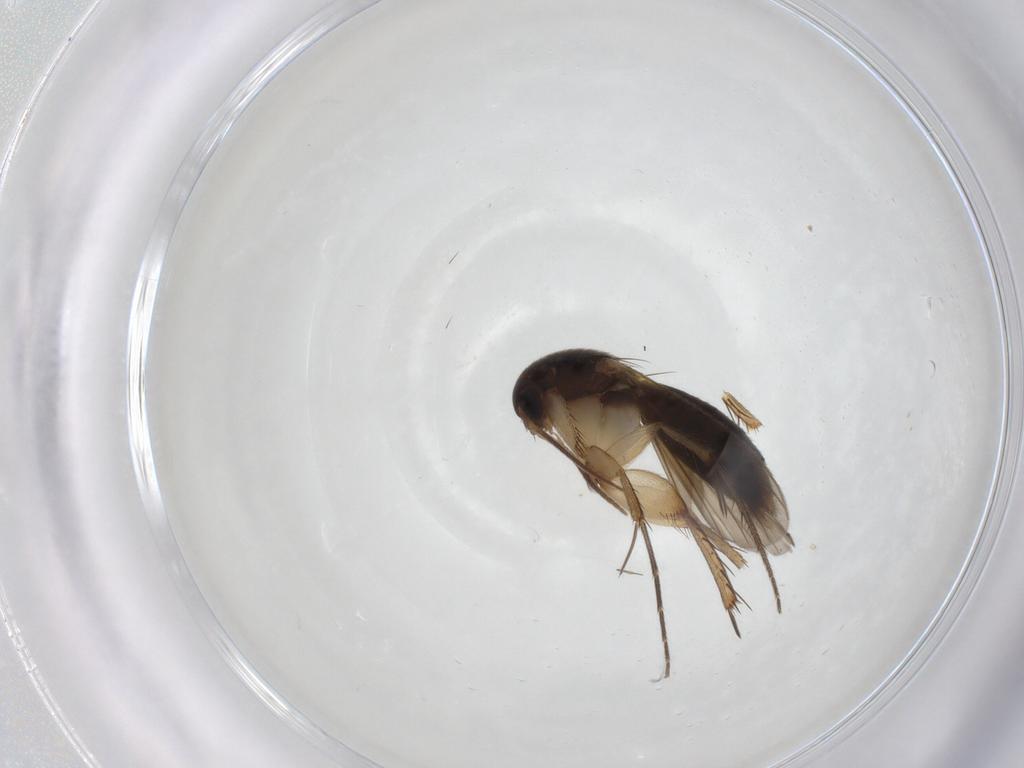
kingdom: Animalia
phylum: Arthropoda
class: Insecta
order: Diptera
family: Mycetophilidae
